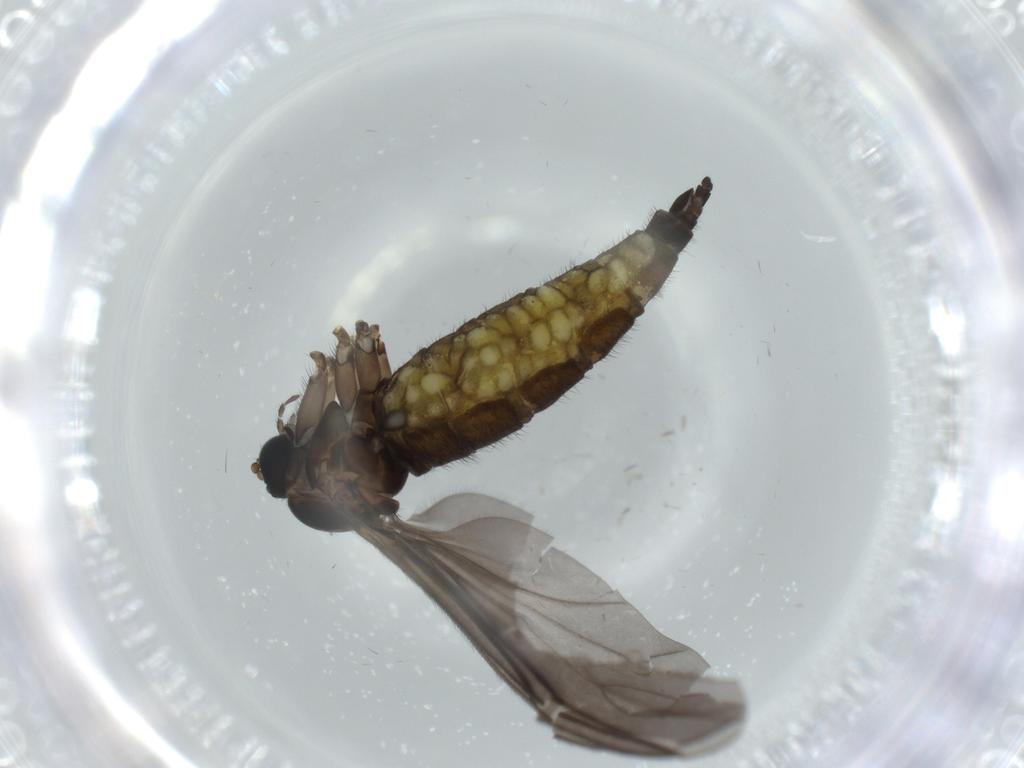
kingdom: Animalia
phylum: Arthropoda
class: Insecta
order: Diptera
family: Sciaridae
